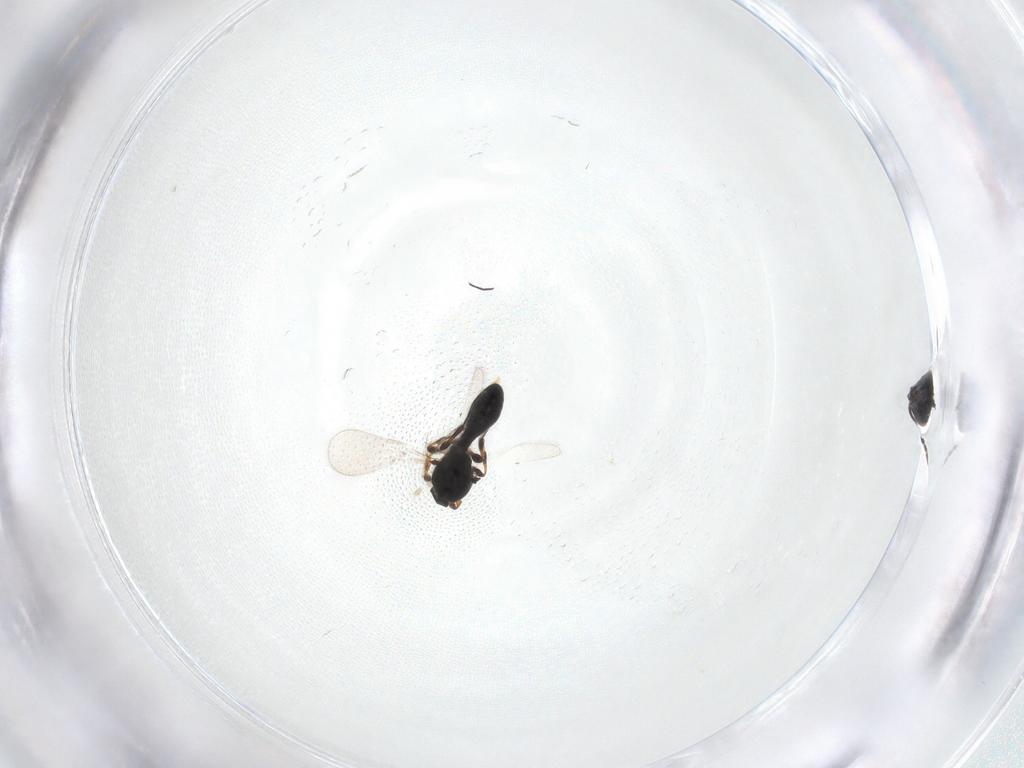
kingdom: Animalia
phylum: Arthropoda
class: Insecta
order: Hymenoptera
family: Platygastridae
